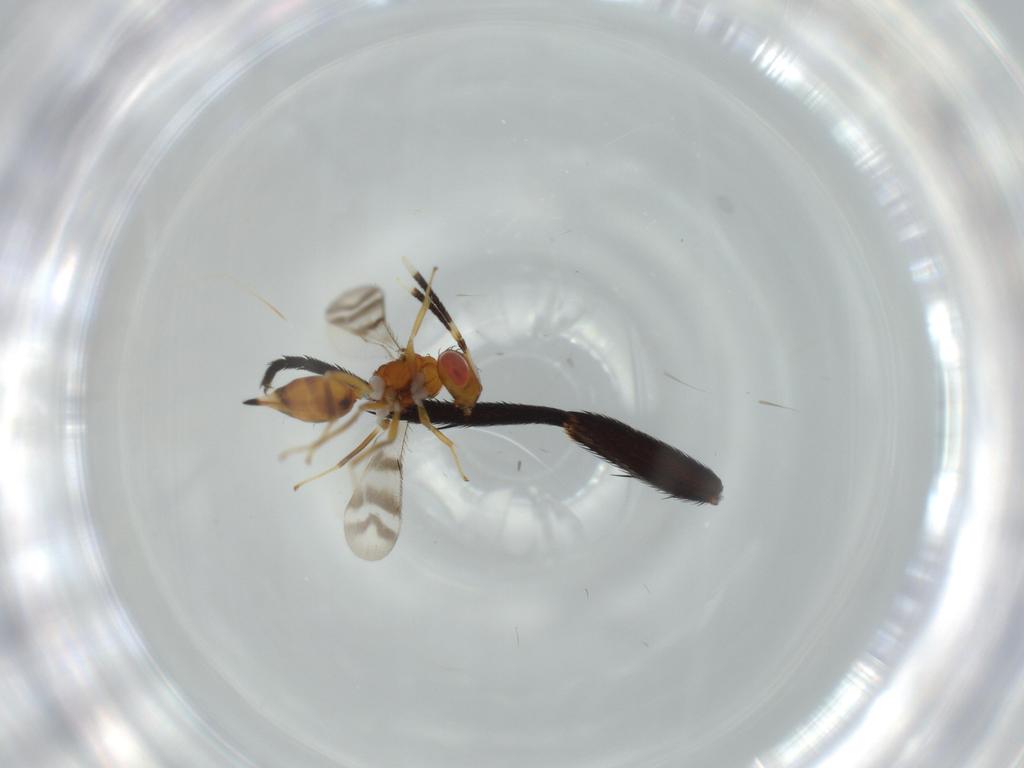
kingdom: Animalia
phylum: Arthropoda
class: Insecta
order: Hymenoptera
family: Diparidae
